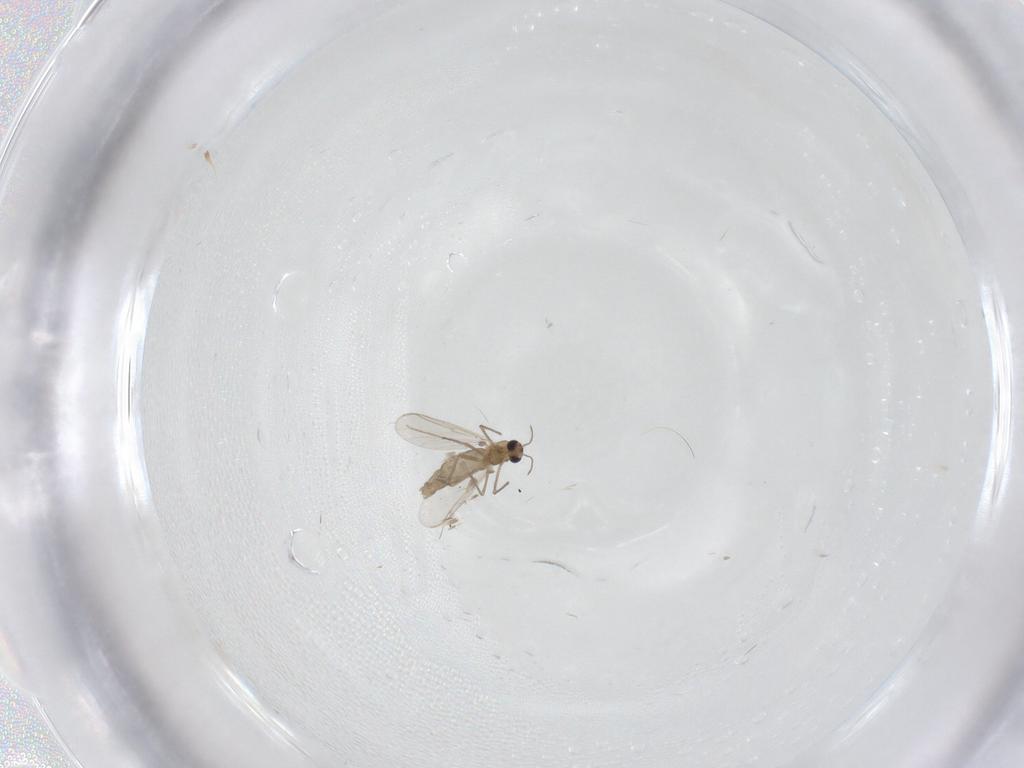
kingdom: Animalia
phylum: Arthropoda
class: Insecta
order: Diptera
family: Chironomidae
